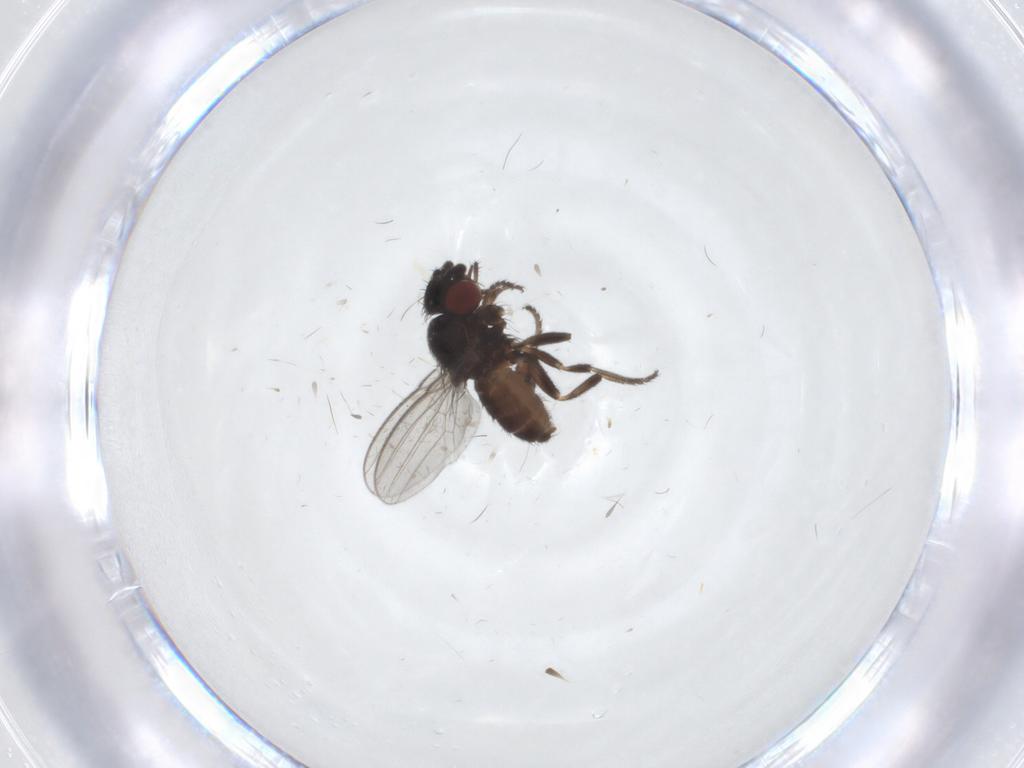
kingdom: Animalia
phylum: Arthropoda
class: Insecta
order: Diptera
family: Milichiidae
